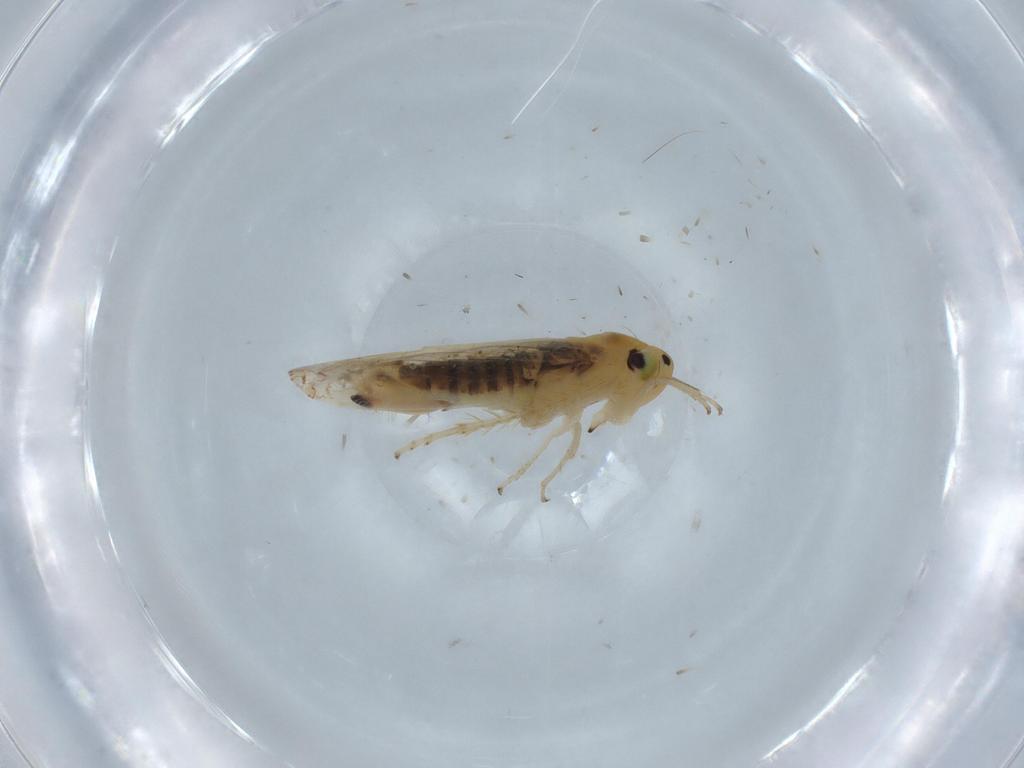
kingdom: Animalia
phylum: Arthropoda
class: Insecta
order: Hemiptera
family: Cicadellidae
